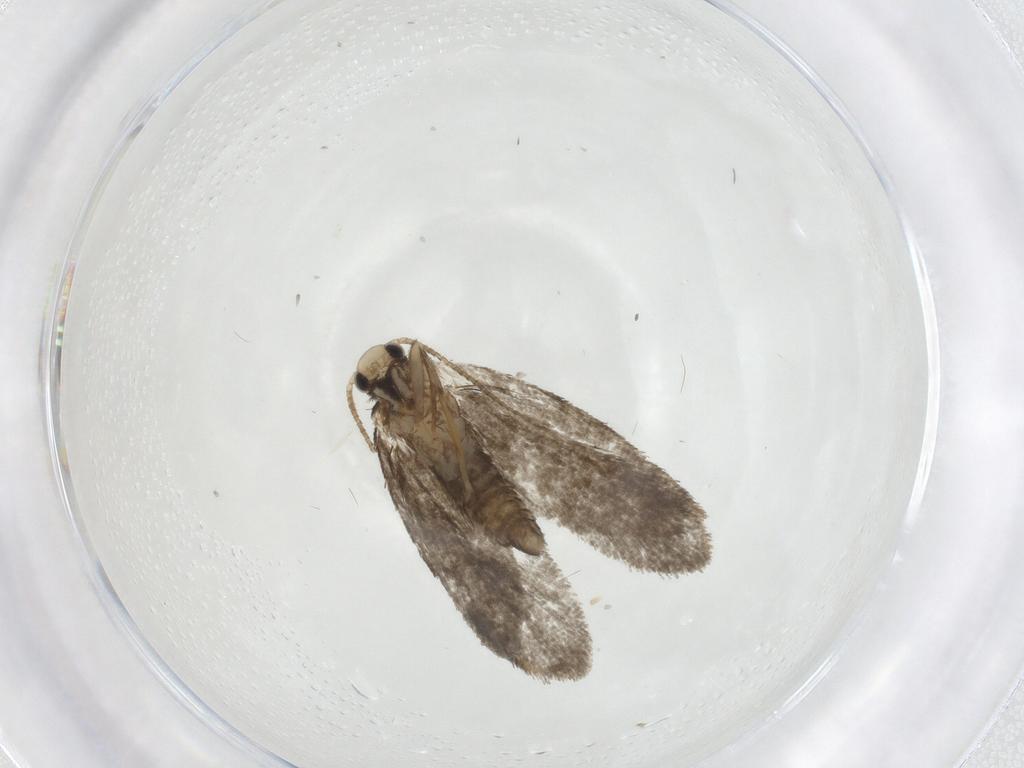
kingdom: Animalia
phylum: Arthropoda
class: Insecta
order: Lepidoptera
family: Psychidae
